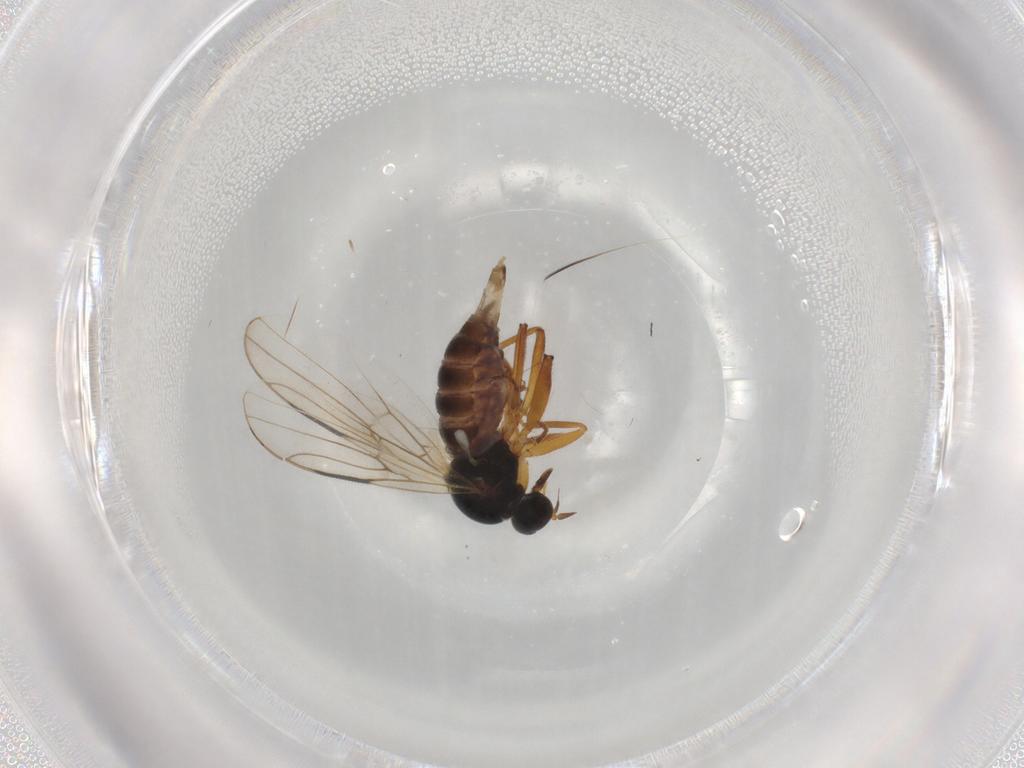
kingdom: Animalia
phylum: Arthropoda
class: Insecta
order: Diptera
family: Hybotidae
